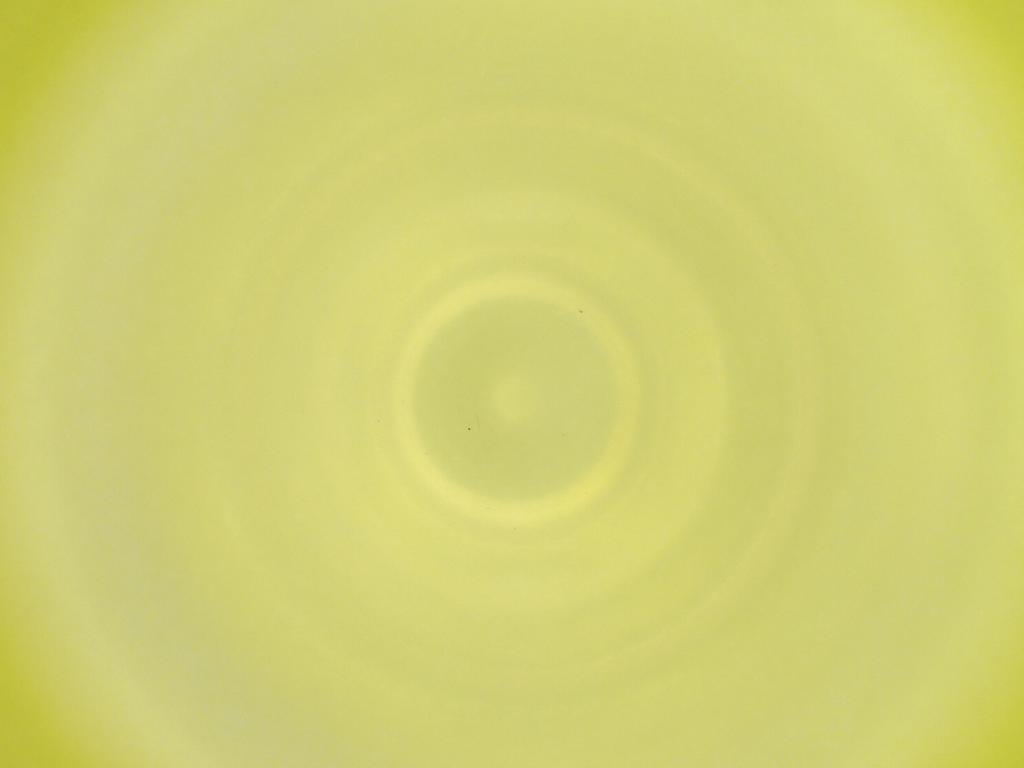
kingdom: Animalia
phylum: Arthropoda
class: Insecta
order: Diptera
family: Cecidomyiidae
